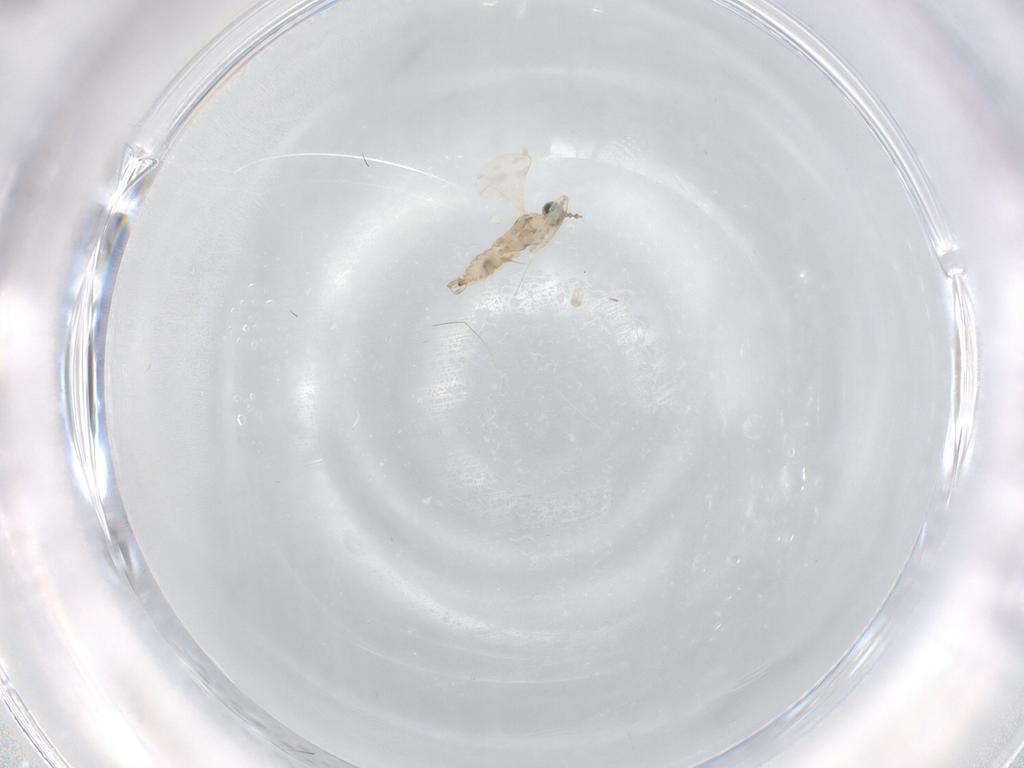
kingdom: Animalia
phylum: Arthropoda
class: Insecta
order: Diptera
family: Cecidomyiidae
